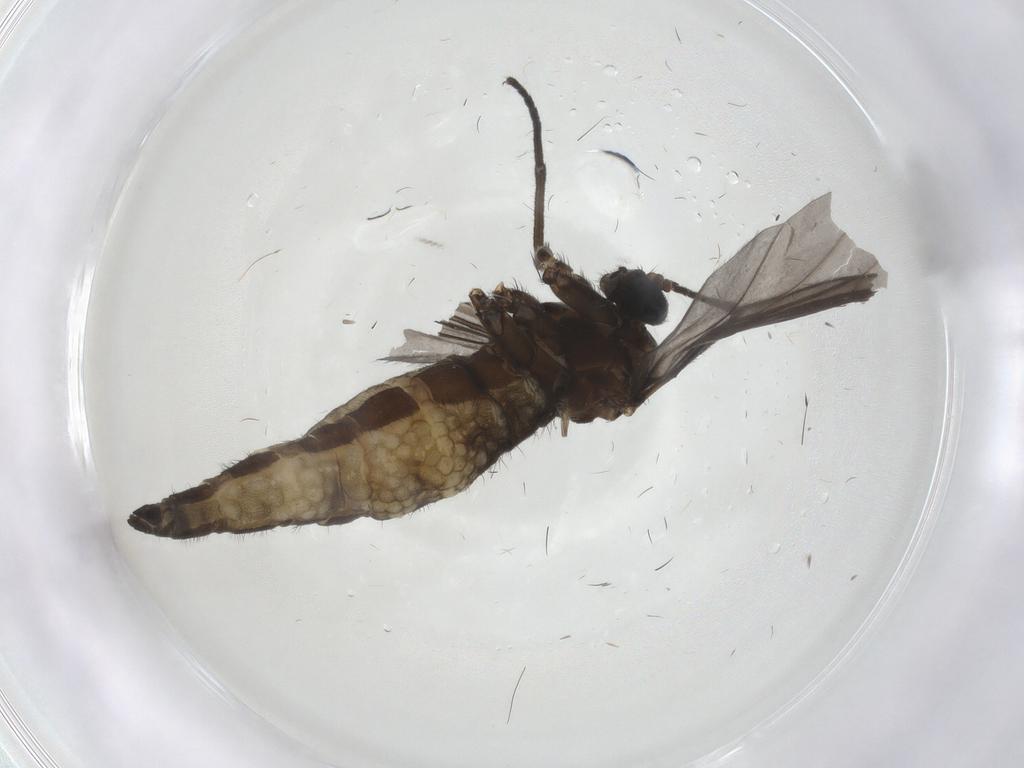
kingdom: Animalia
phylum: Arthropoda
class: Insecta
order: Diptera
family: Sciaridae
